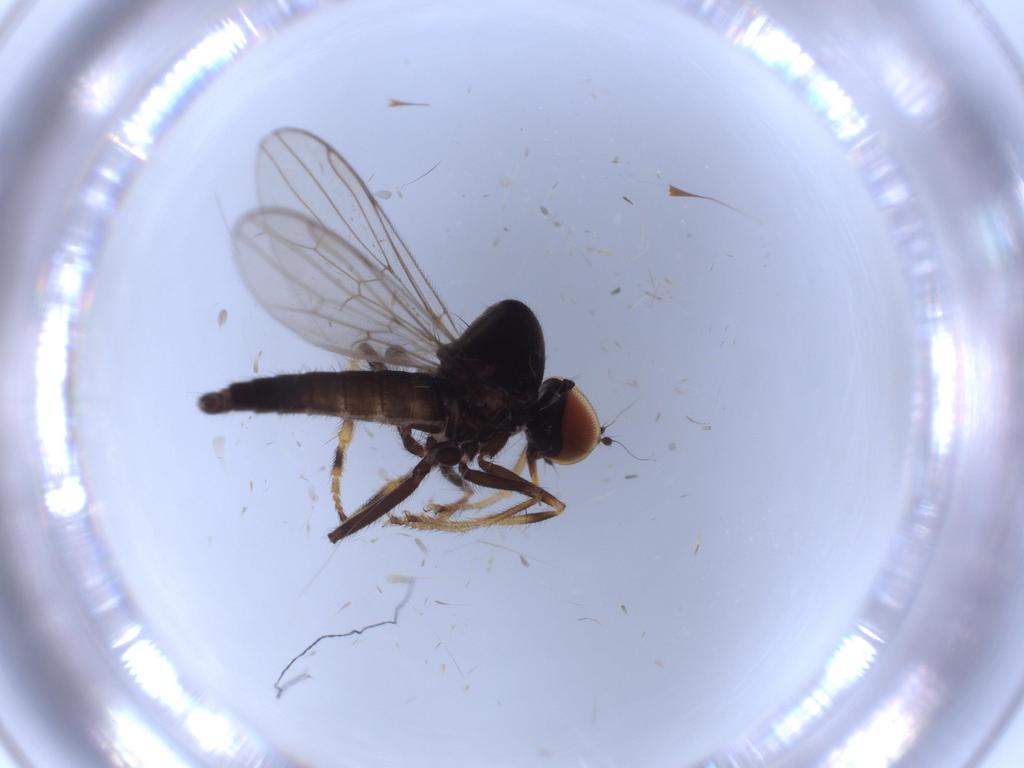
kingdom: Animalia
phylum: Arthropoda
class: Insecta
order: Diptera
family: Hybotidae
